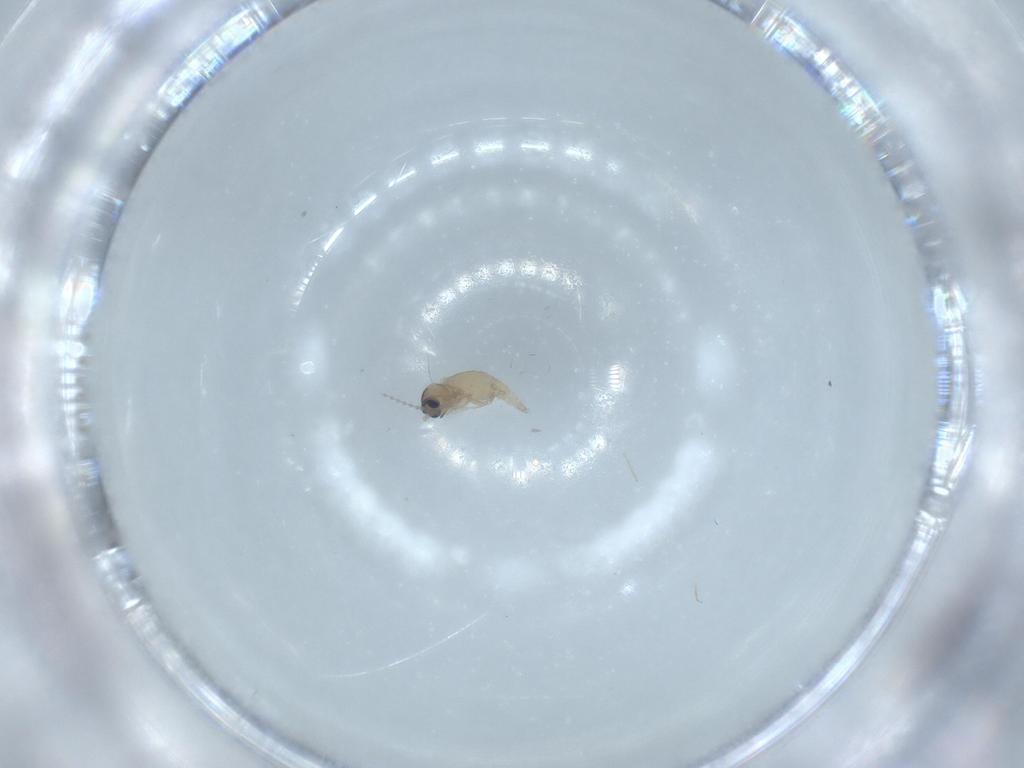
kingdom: Animalia
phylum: Arthropoda
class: Insecta
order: Diptera
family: Cecidomyiidae
